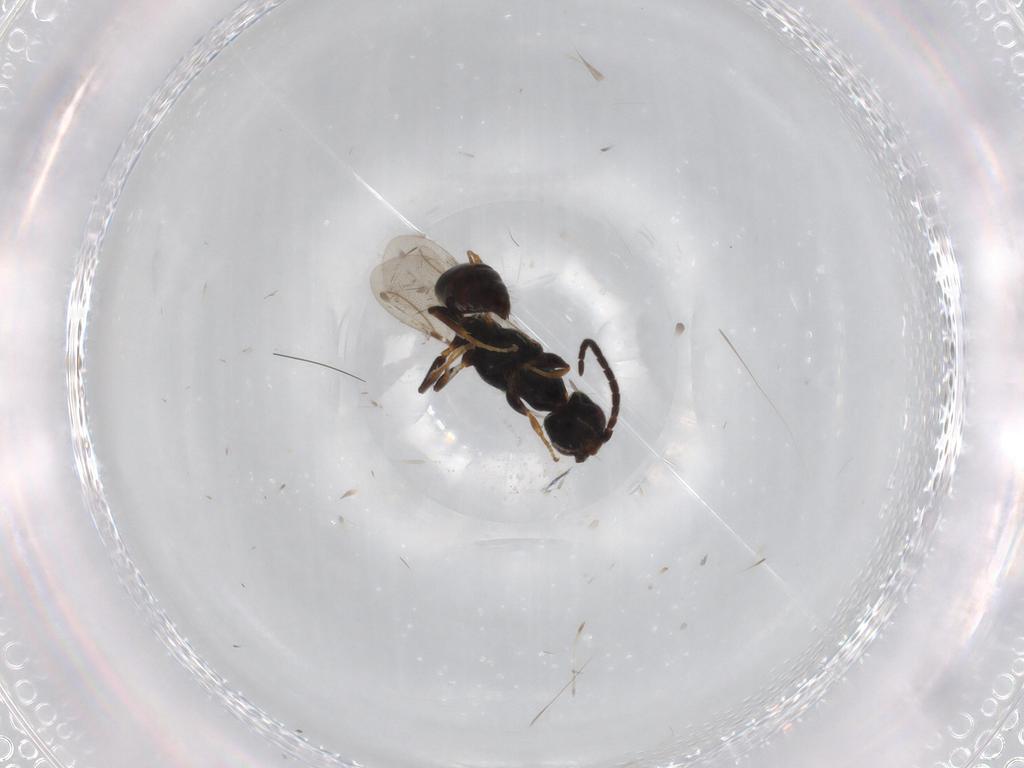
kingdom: Animalia
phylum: Arthropoda
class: Insecta
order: Hymenoptera
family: Bethylidae
